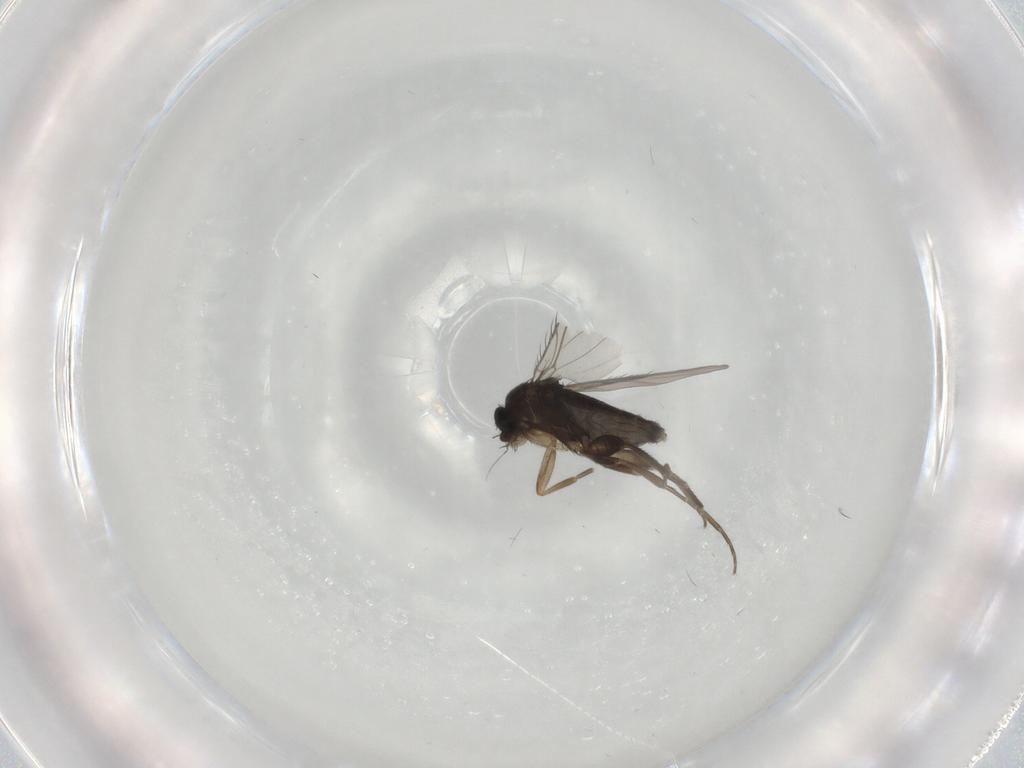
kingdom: Animalia
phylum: Arthropoda
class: Insecta
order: Diptera
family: Phoridae
